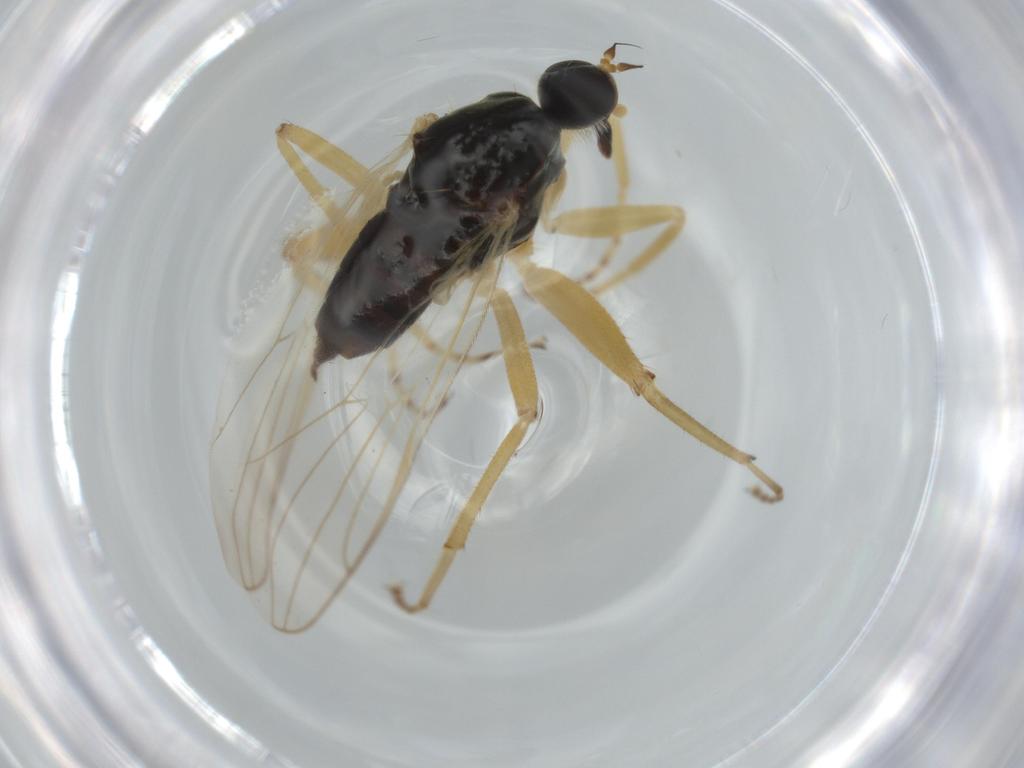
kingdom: Animalia
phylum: Arthropoda
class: Insecta
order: Diptera
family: Hybotidae
